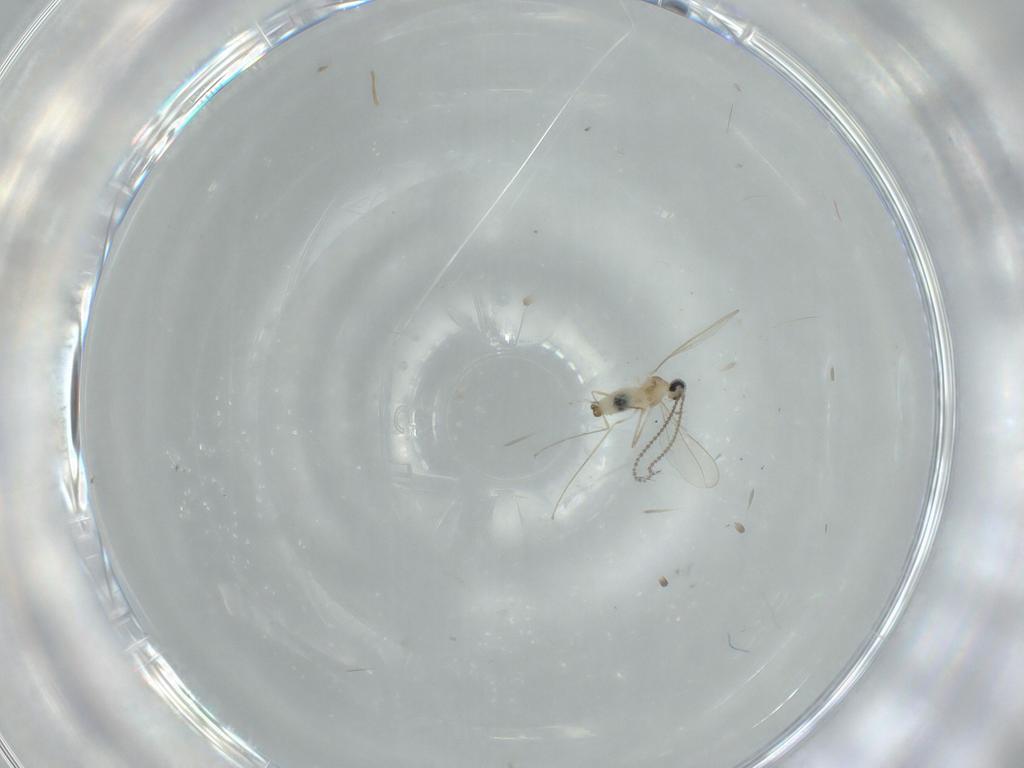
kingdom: Animalia
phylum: Arthropoda
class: Insecta
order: Diptera
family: Cecidomyiidae
